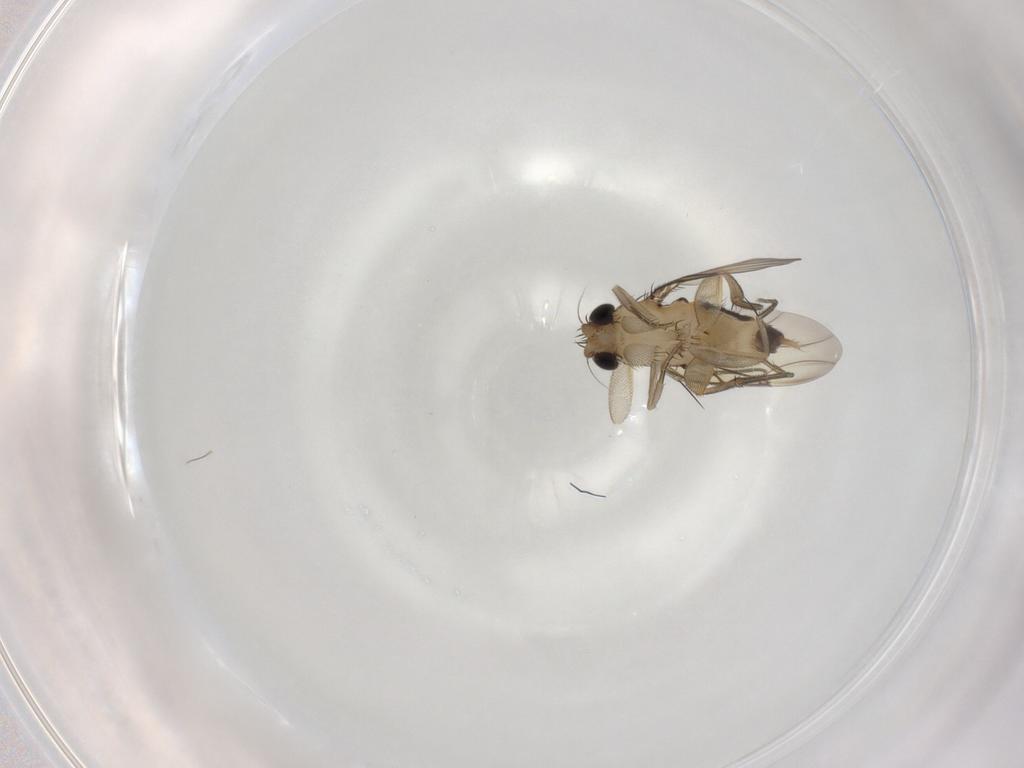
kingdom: Animalia
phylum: Arthropoda
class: Insecta
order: Diptera
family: Phoridae
